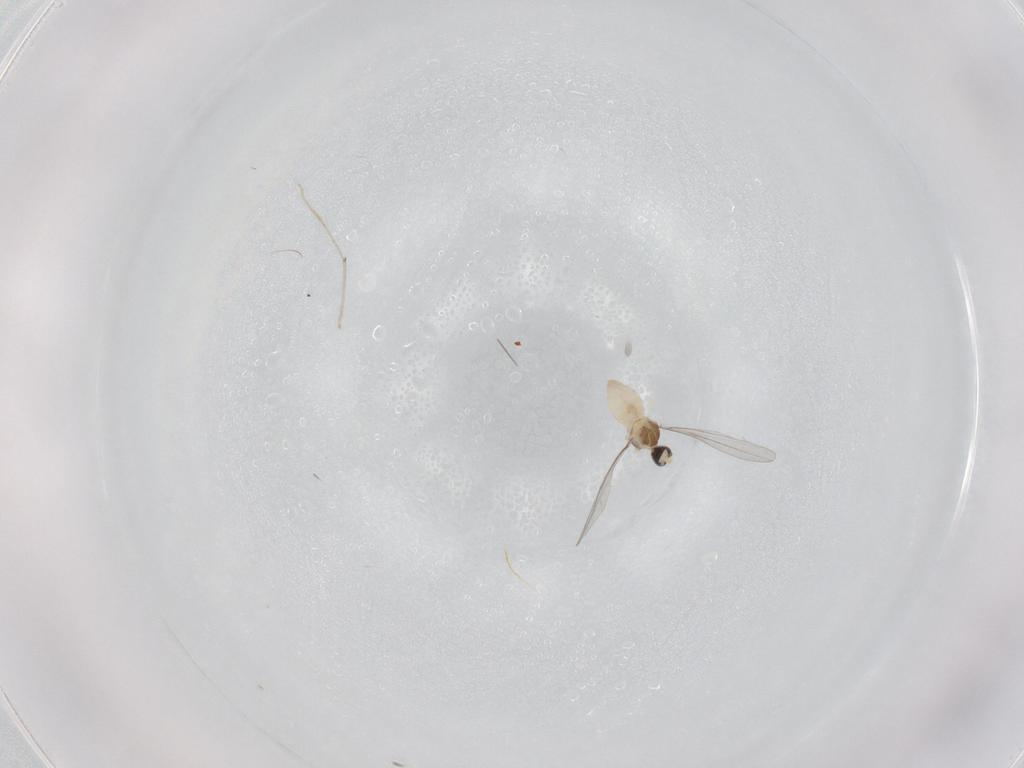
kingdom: Animalia
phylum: Arthropoda
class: Insecta
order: Diptera
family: Cecidomyiidae
